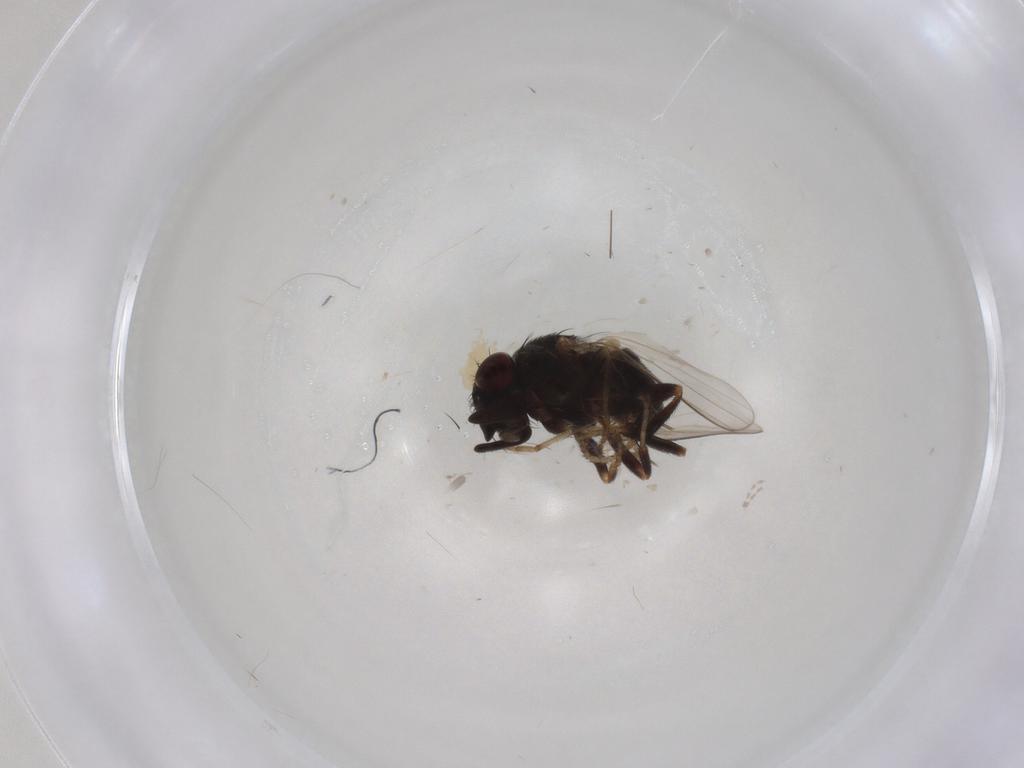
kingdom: Animalia
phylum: Arthropoda
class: Insecta
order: Diptera
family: Milichiidae
